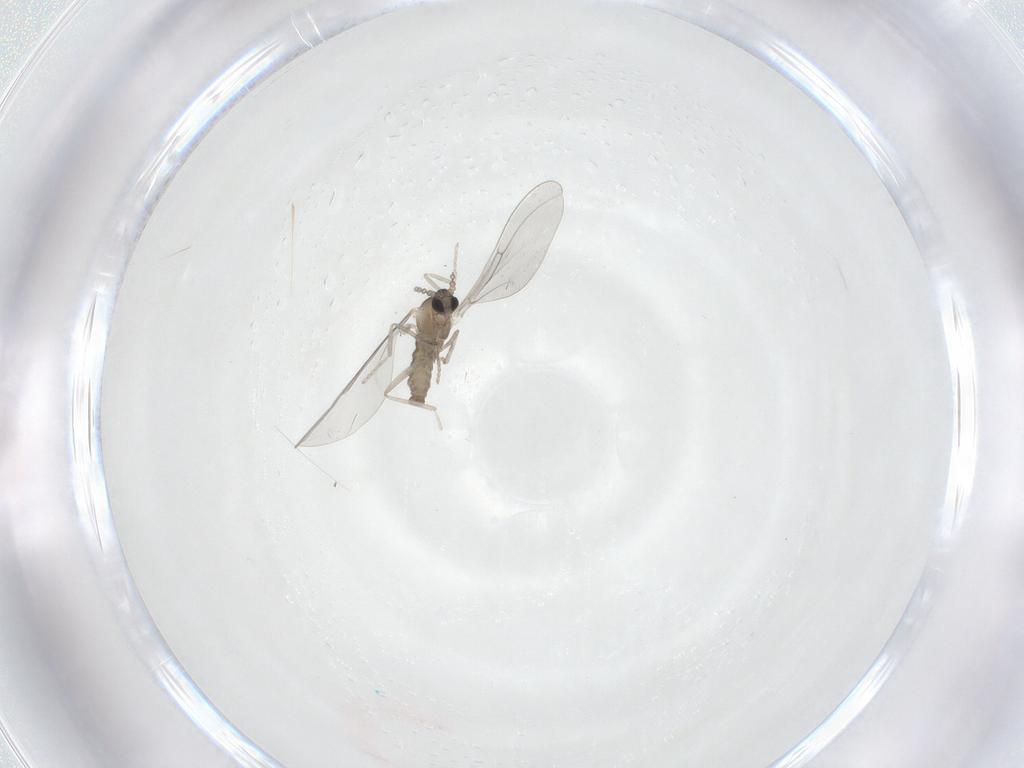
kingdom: Animalia
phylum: Arthropoda
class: Insecta
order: Diptera
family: Cecidomyiidae
